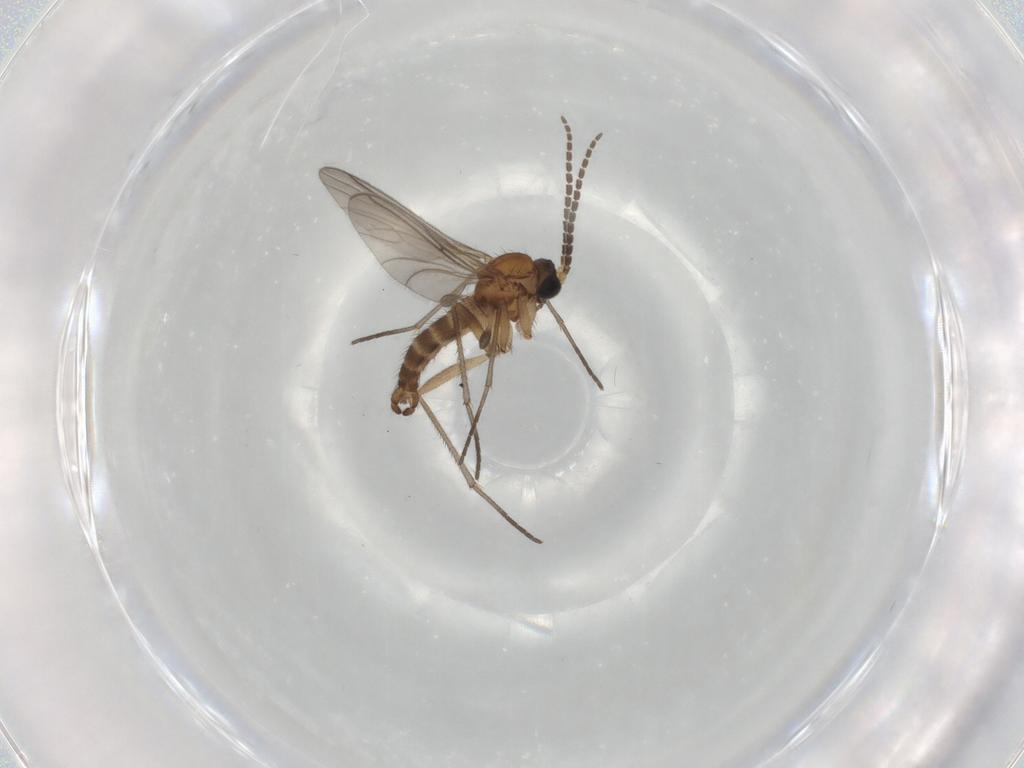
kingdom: Animalia
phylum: Arthropoda
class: Insecta
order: Diptera
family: Sciaridae
